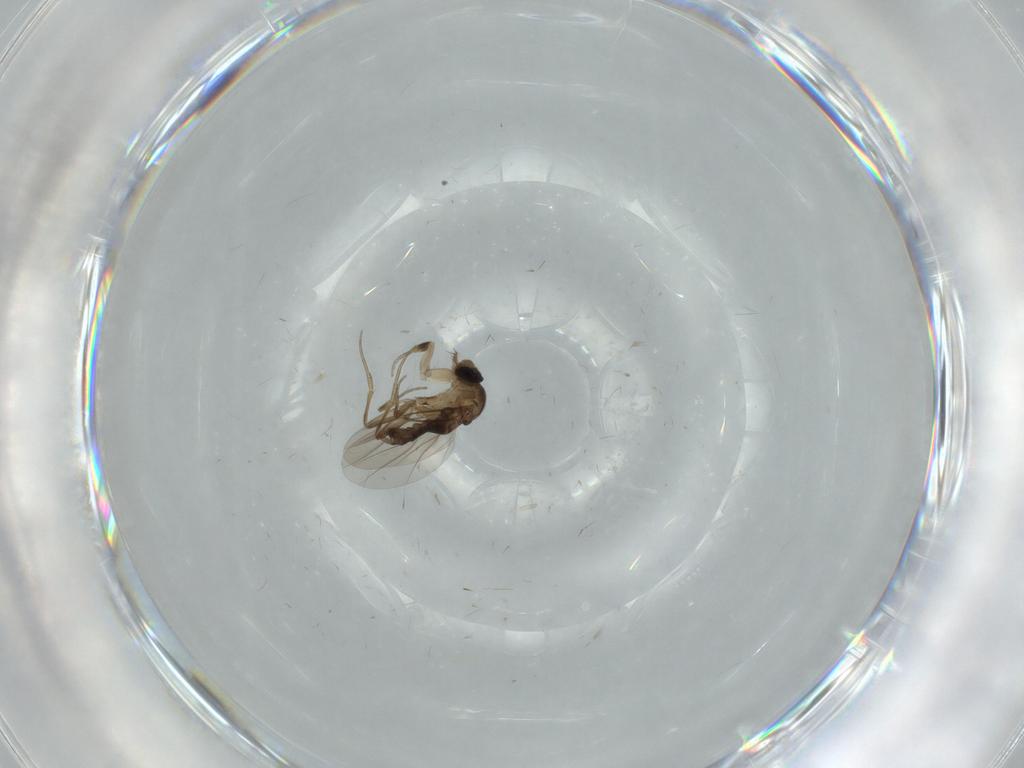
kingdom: Animalia
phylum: Arthropoda
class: Insecta
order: Diptera
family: Phoridae
